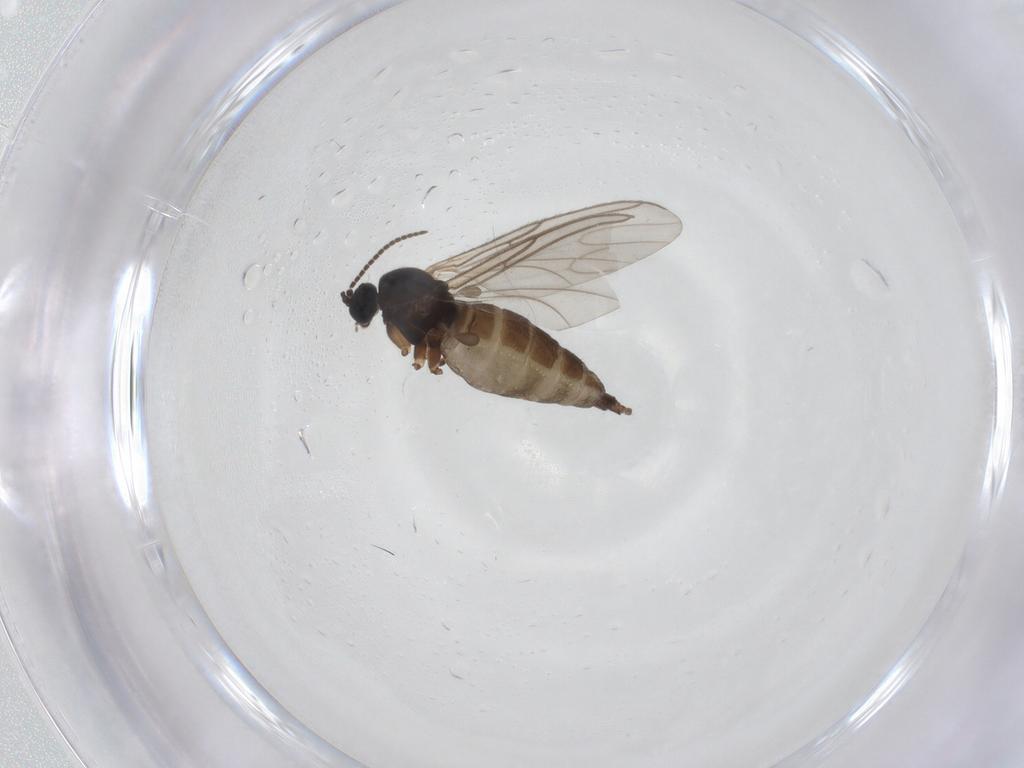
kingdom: Animalia
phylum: Arthropoda
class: Insecta
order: Diptera
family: Sciaridae
